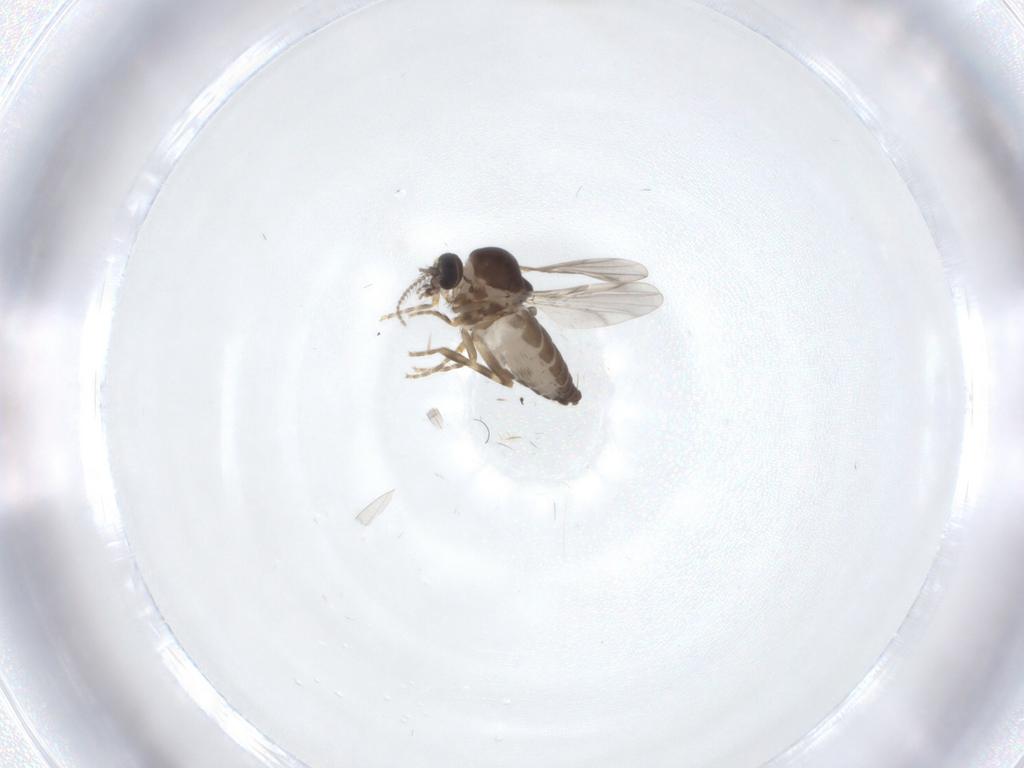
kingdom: Animalia
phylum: Arthropoda
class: Insecta
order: Diptera
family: Ceratopogonidae
